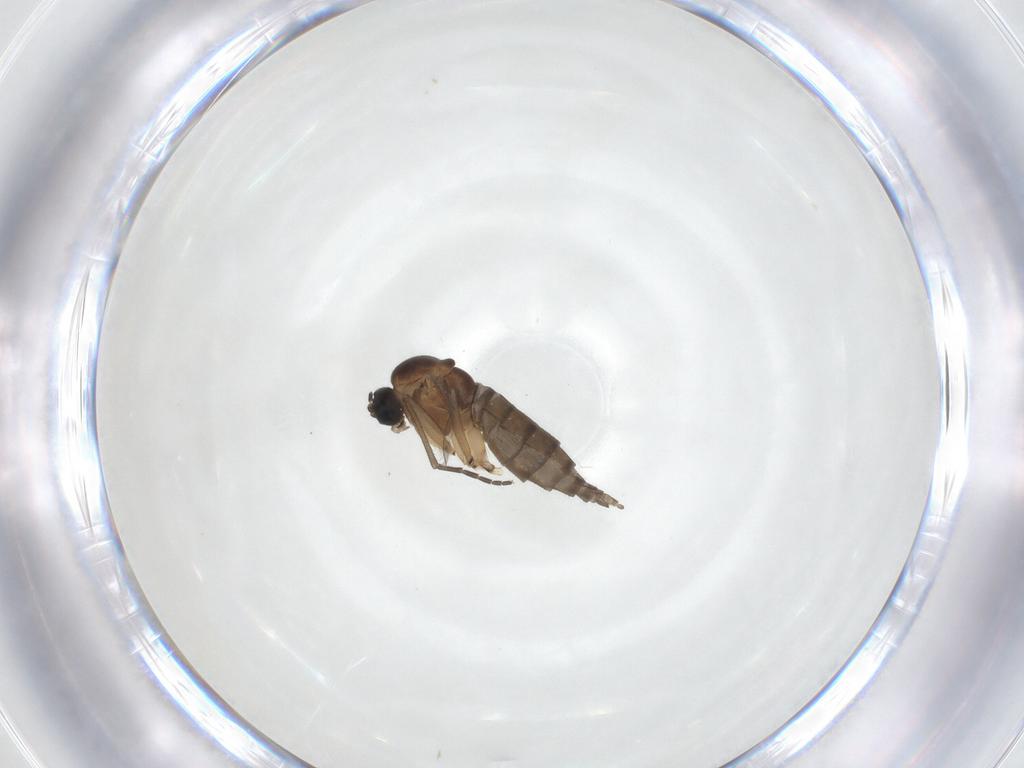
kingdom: Animalia
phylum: Arthropoda
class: Insecta
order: Diptera
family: Sciaridae
